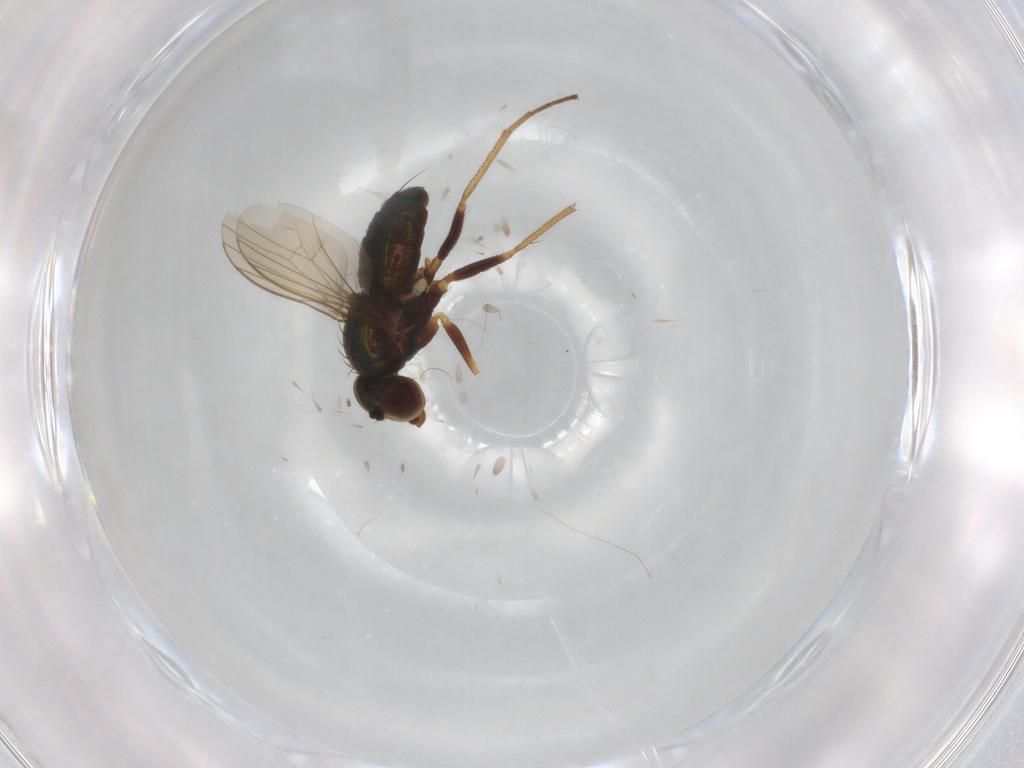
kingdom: Animalia
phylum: Arthropoda
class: Insecta
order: Diptera
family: Dolichopodidae
